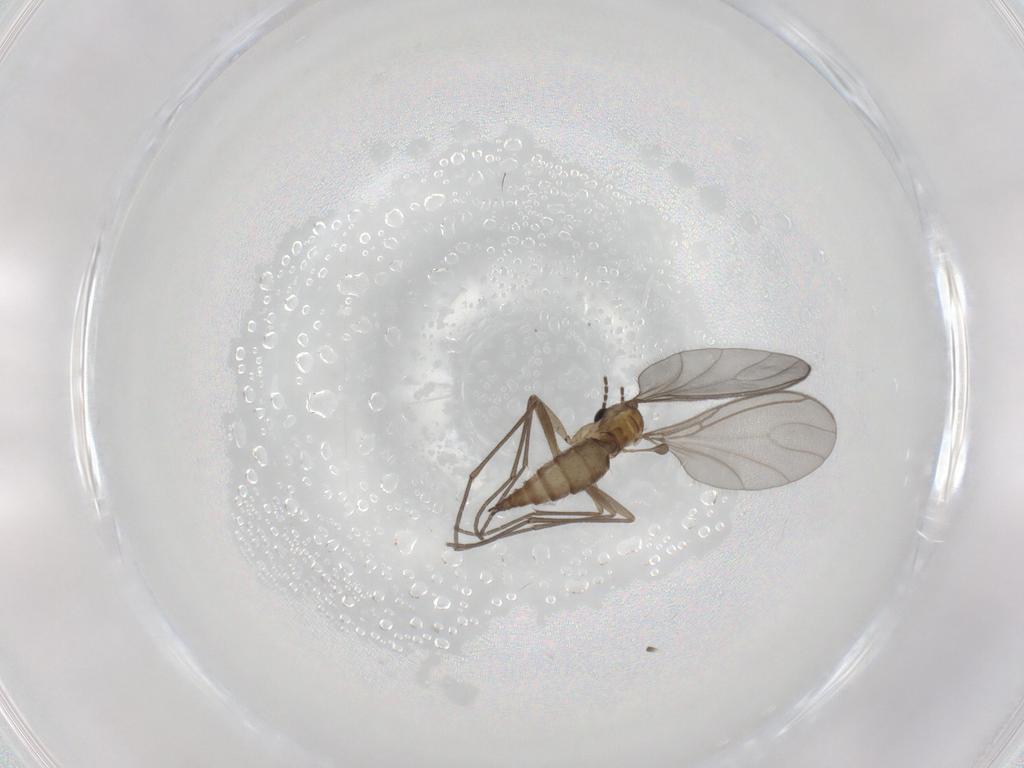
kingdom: Animalia
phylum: Arthropoda
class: Insecta
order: Diptera
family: Sciaridae
